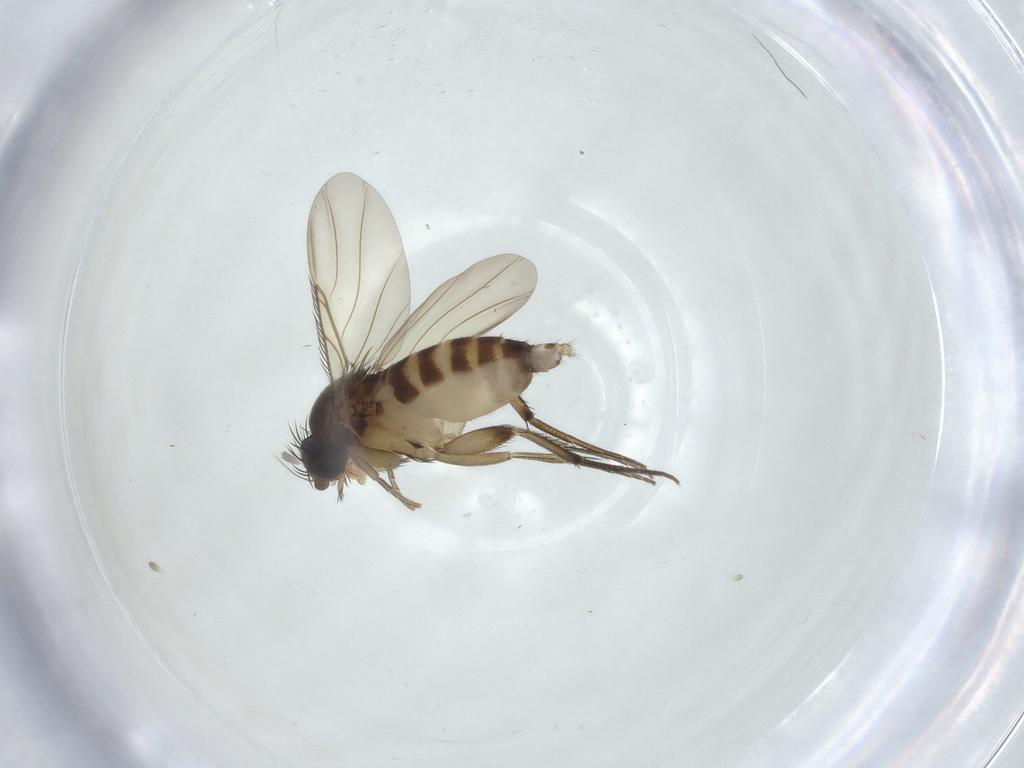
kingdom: Animalia
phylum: Arthropoda
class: Insecta
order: Diptera
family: Phoridae
